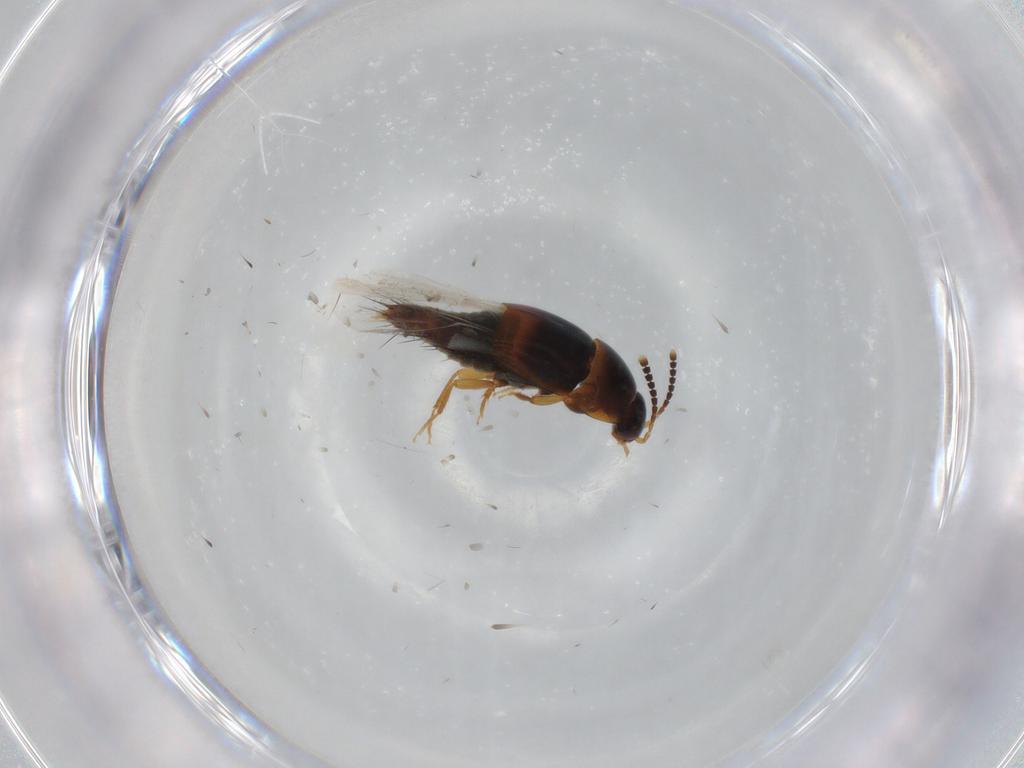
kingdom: Animalia
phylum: Arthropoda
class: Insecta
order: Coleoptera
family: Staphylinidae
